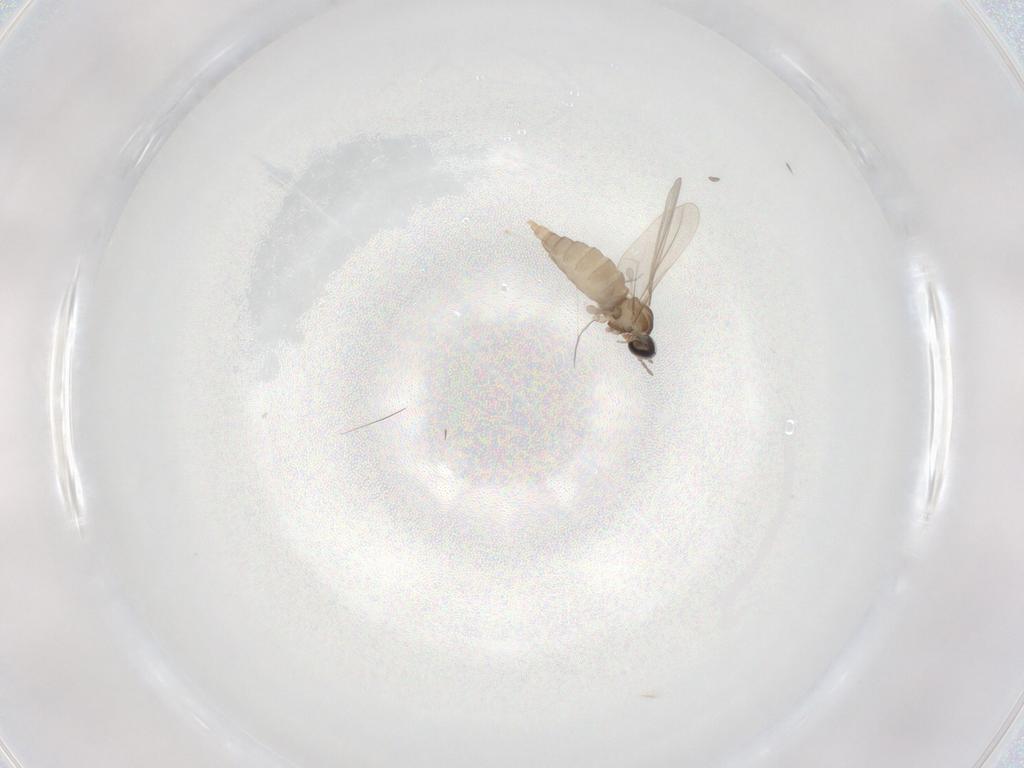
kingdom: Animalia
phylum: Arthropoda
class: Insecta
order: Diptera
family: Cecidomyiidae
